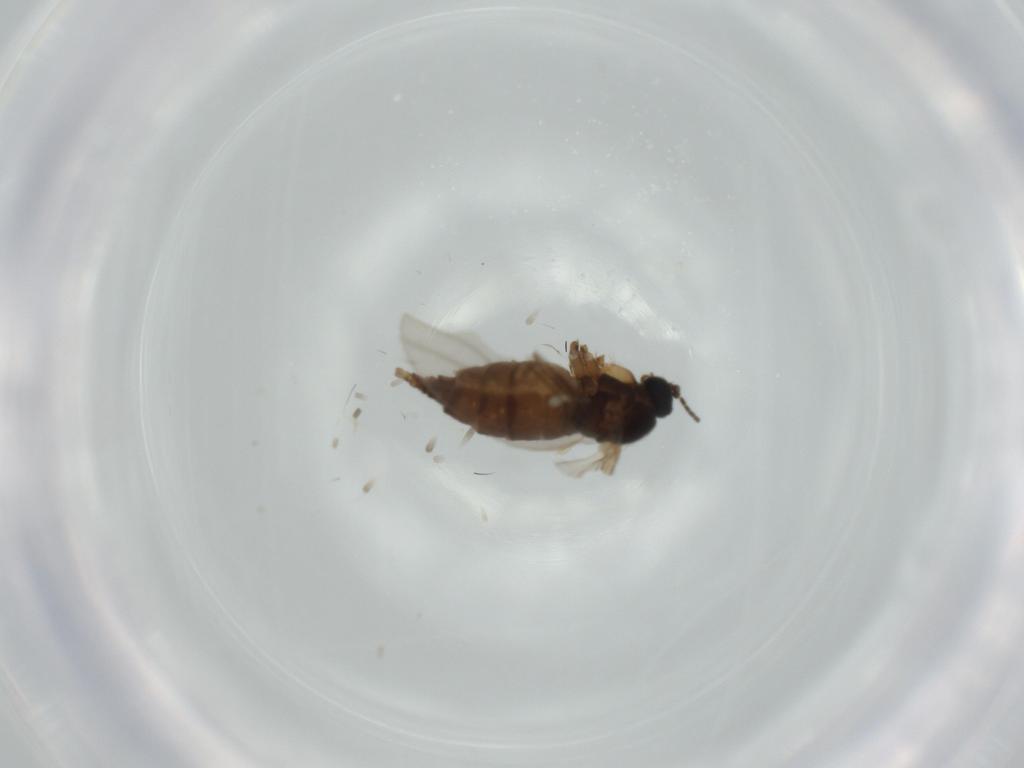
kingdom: Animalia
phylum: Arthropoda
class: Insecta
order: Diptera
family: Sciaridae
